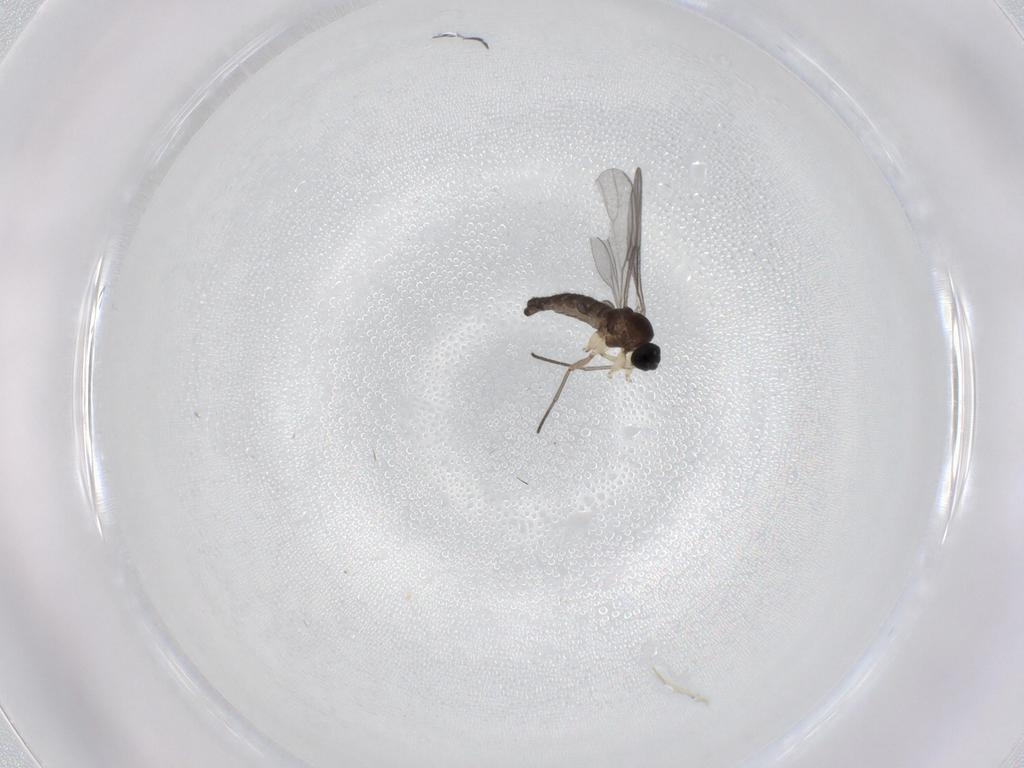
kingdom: Animalia
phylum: Arthropoda
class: Insecta
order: Diptera
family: Sciaridae
